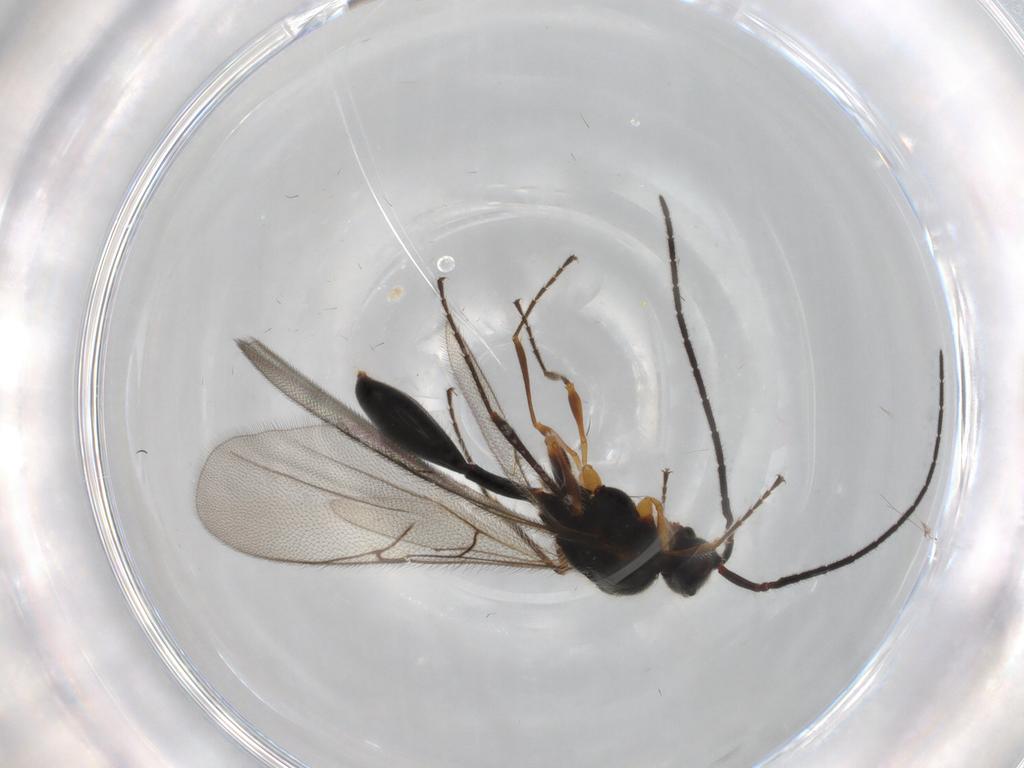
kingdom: Animalia
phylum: Arthropoda
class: Insecta
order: Hymenoptera
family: Diapriidae
